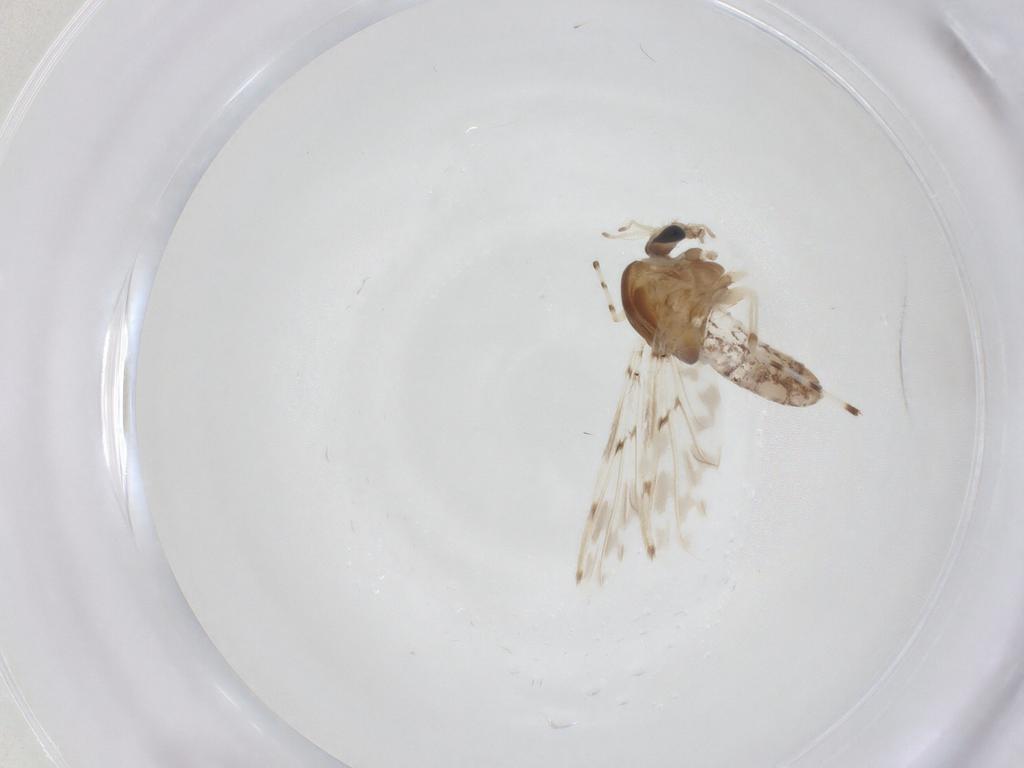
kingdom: Animalia
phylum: Arthropoda
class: Insecta
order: Diptera
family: Chironomidae
